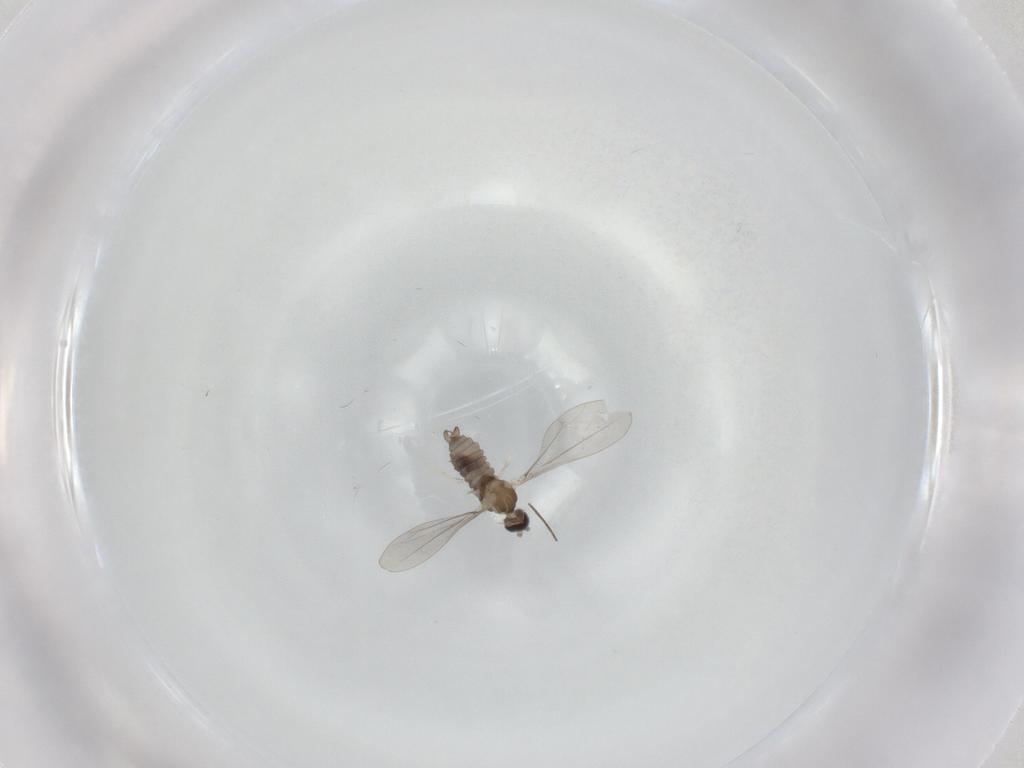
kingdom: Animalia
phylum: Arthropoda
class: Insecta
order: Diptera
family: Chironomidae
